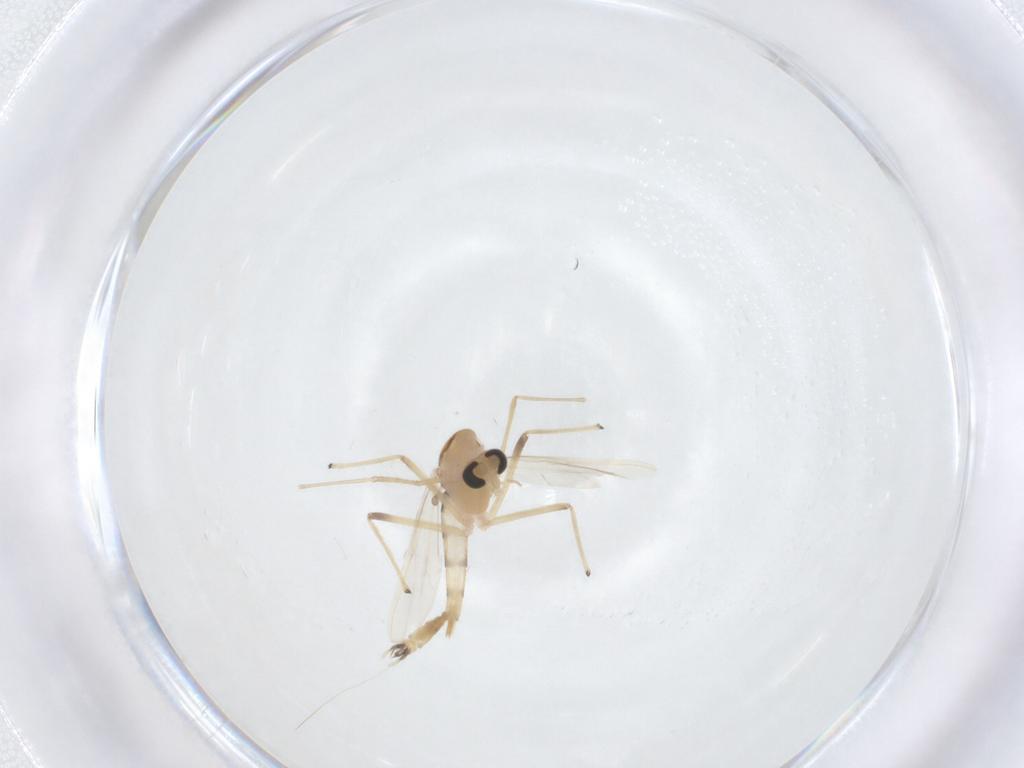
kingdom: Animalia
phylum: Arthropoda
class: Insecta
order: Diptera
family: Chironomidae
